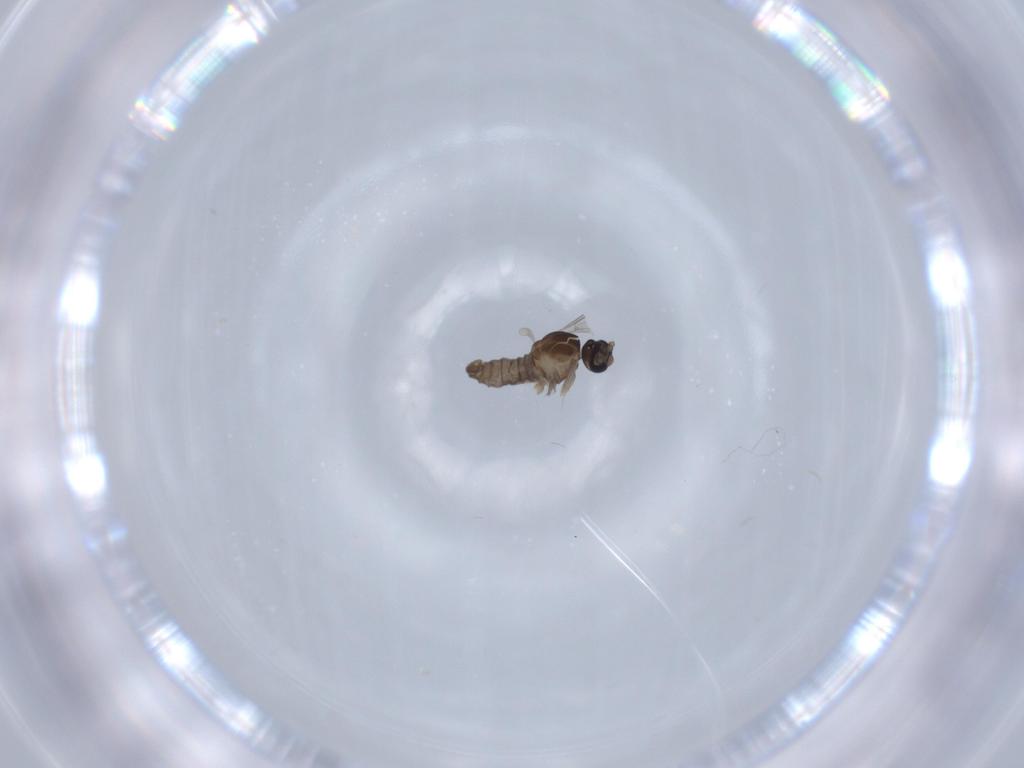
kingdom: Animalia
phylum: Arthropoda
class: Insecta
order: Diptera
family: Cecidomyiidae
